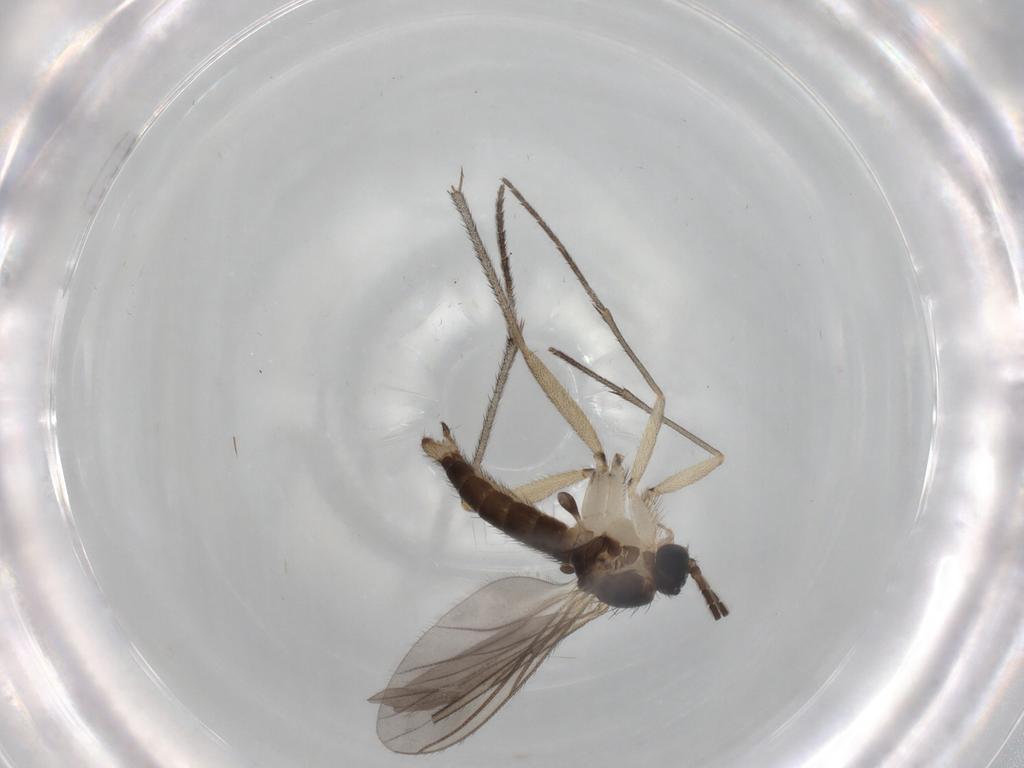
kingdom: Animalia
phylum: Arthropoda
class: Insecta
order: Diptera
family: Sciaridae
